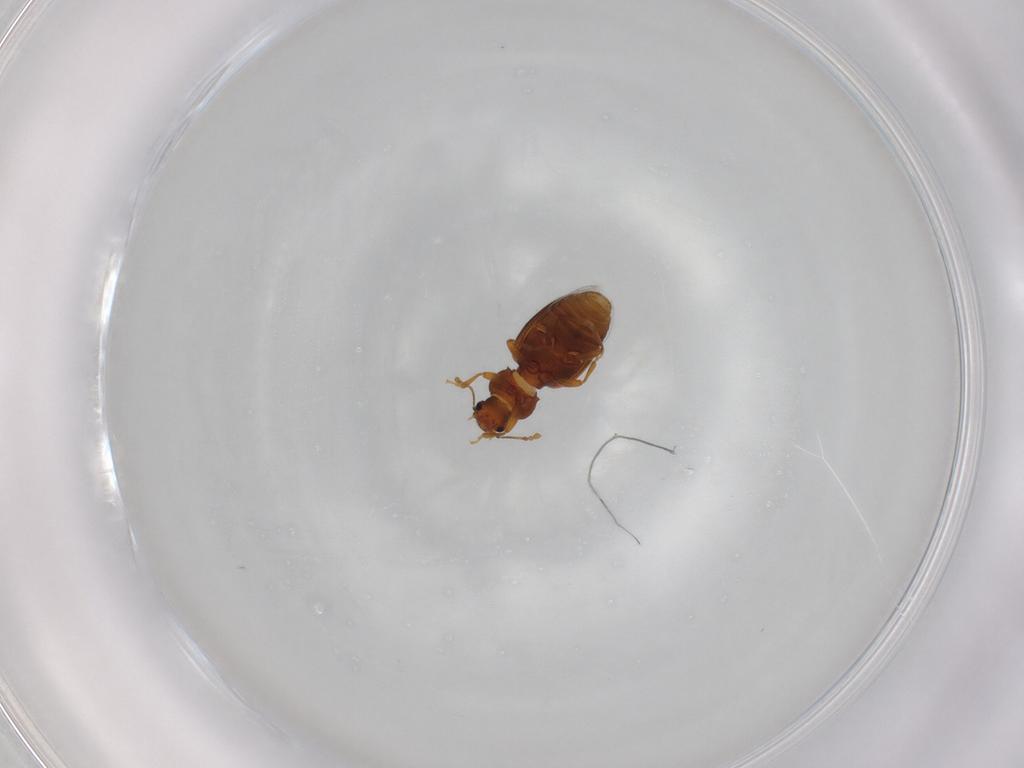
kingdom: Animalia
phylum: Arthropoda
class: Insecta
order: Coleoptera
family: Latridiidae
